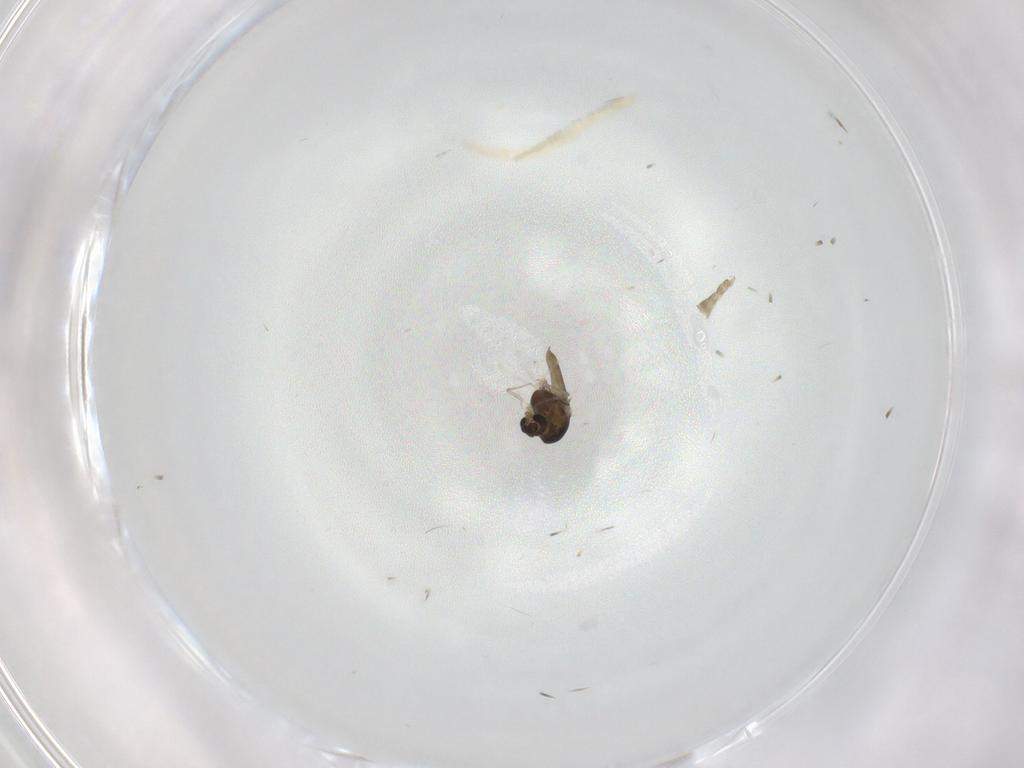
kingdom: Animalia
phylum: Arthropoda
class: Insecta
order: Diptera
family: Chironomidae
